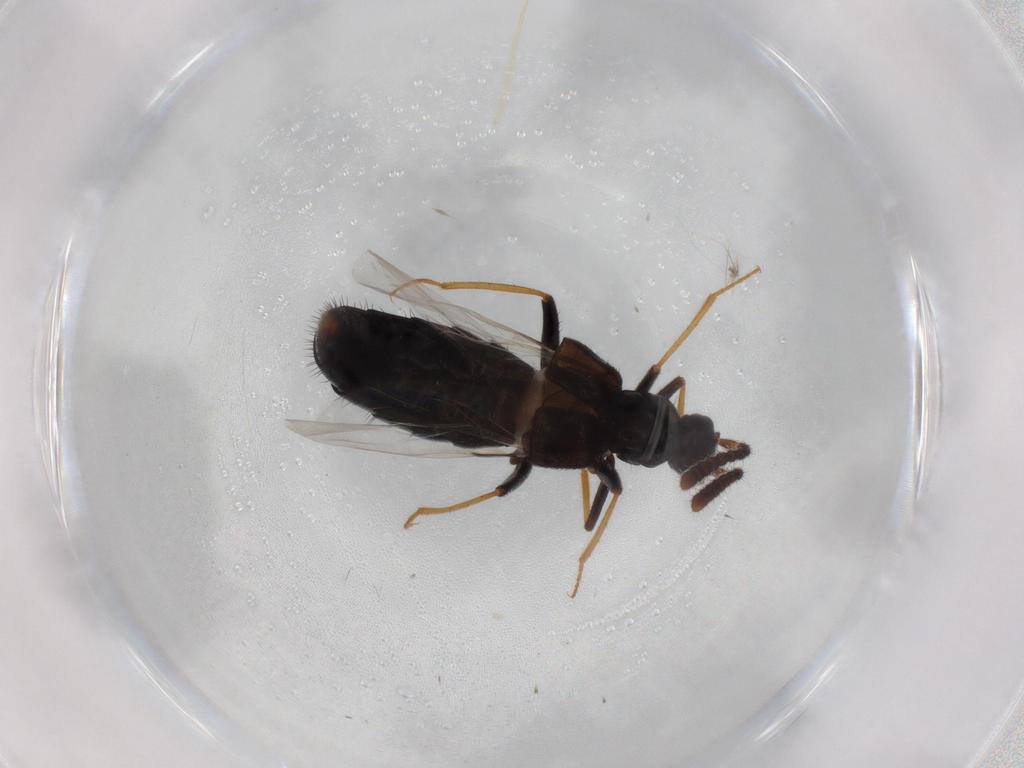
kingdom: Animalia
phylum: Arthropoda
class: Insecta
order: Coleoptera
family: Staphylinidae
